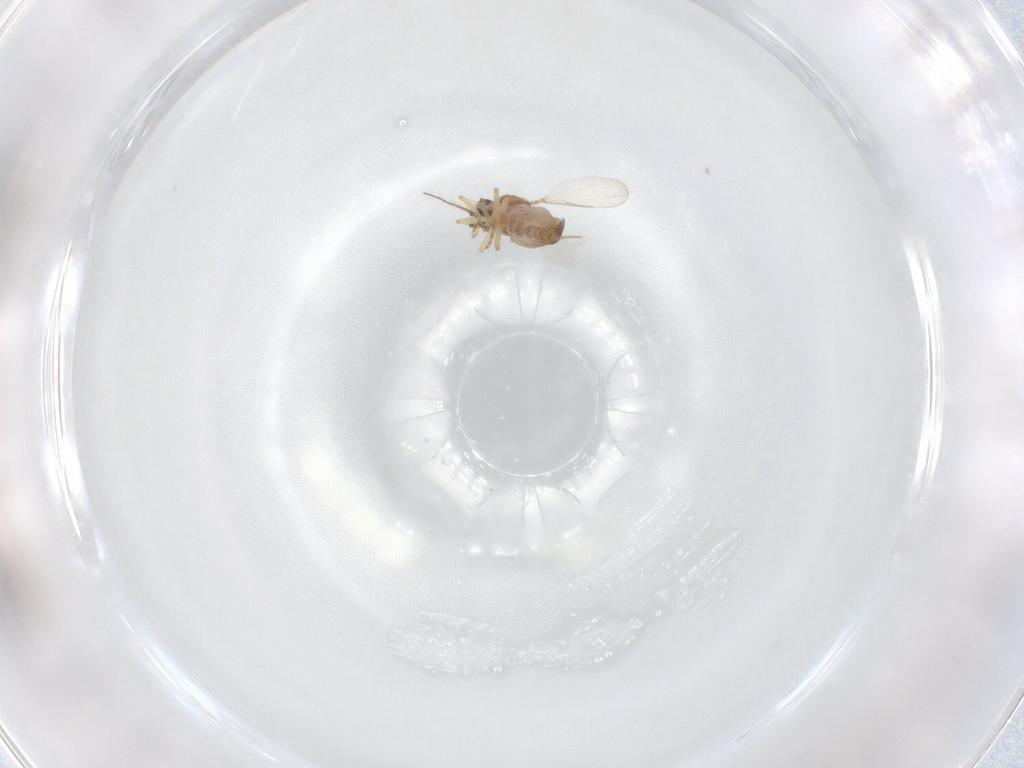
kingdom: Animalia
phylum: Arthropoda
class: Insecta
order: Diptera
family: Ceratopogonidae
